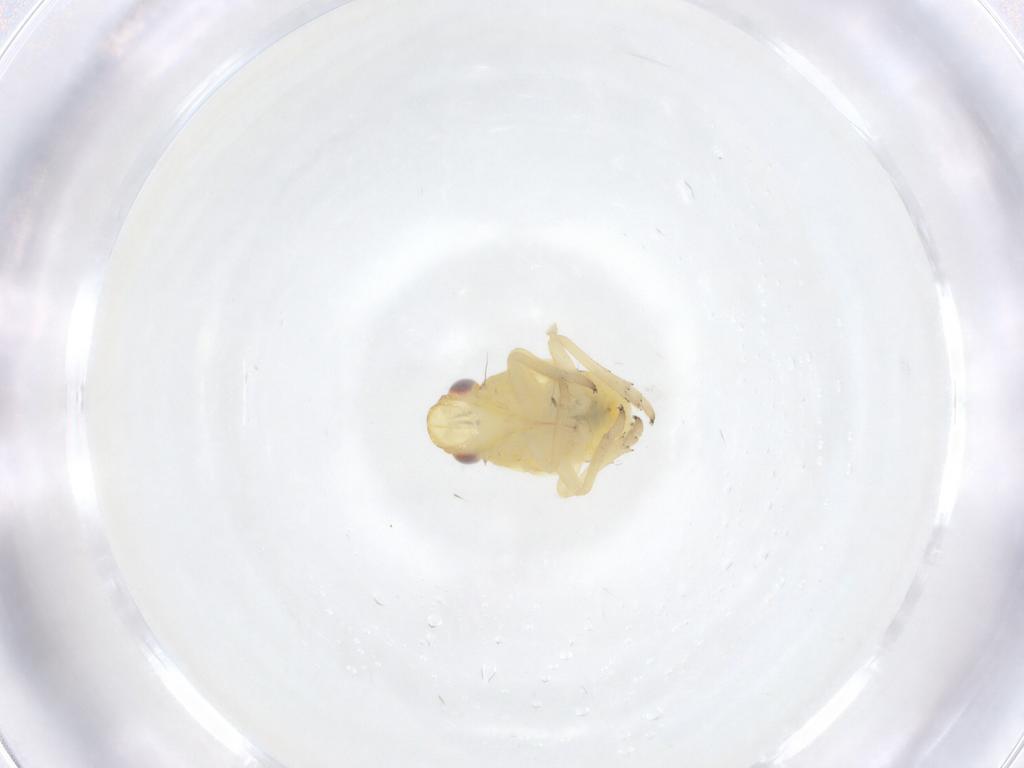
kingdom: Animalia
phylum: Arthropoda
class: Insecta
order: Hemiptera
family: Caliscelidae
